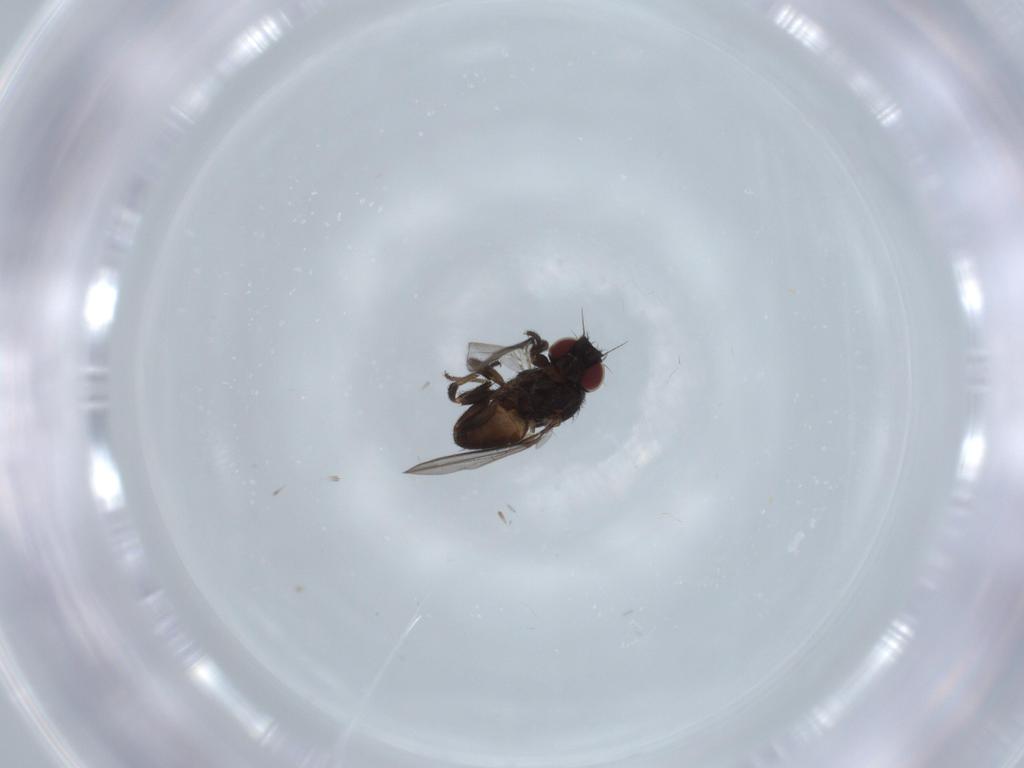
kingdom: Animalia
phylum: Arthropoda
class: Insecta
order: Diptera
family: Milichiidae
